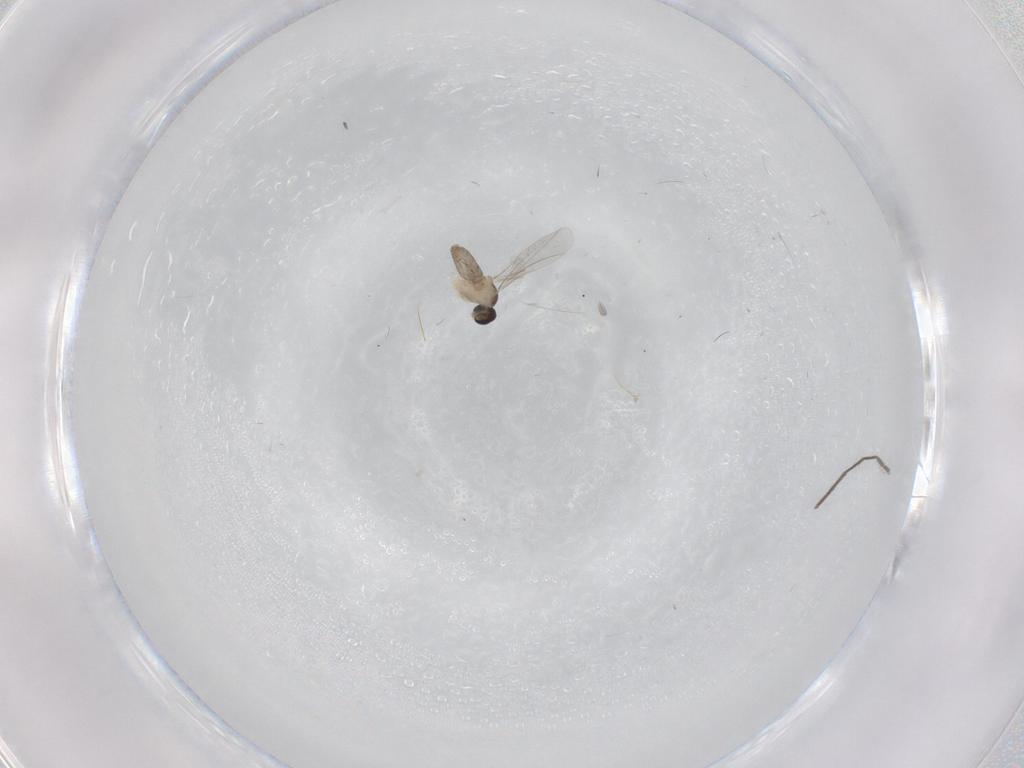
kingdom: Animalia
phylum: Arthropoda
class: Insecta
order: Diptera
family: Cecidomyiidae
